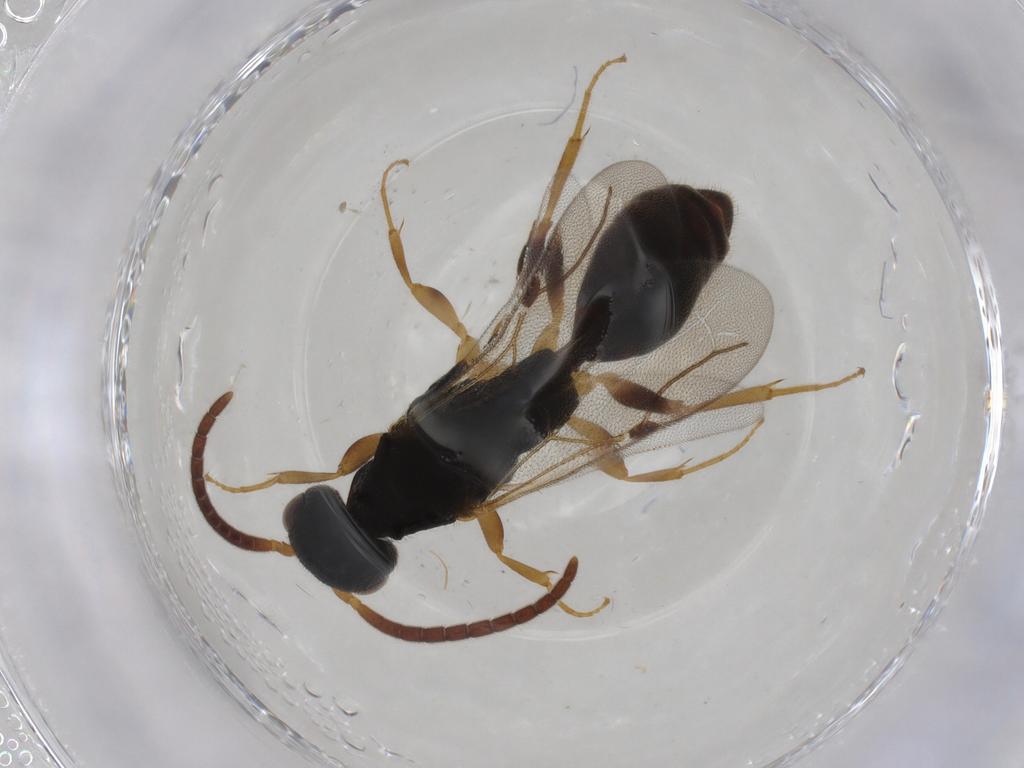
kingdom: Animalia
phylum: Arthropoda
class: Insecta
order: Hymenoptera
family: Bethylidae
